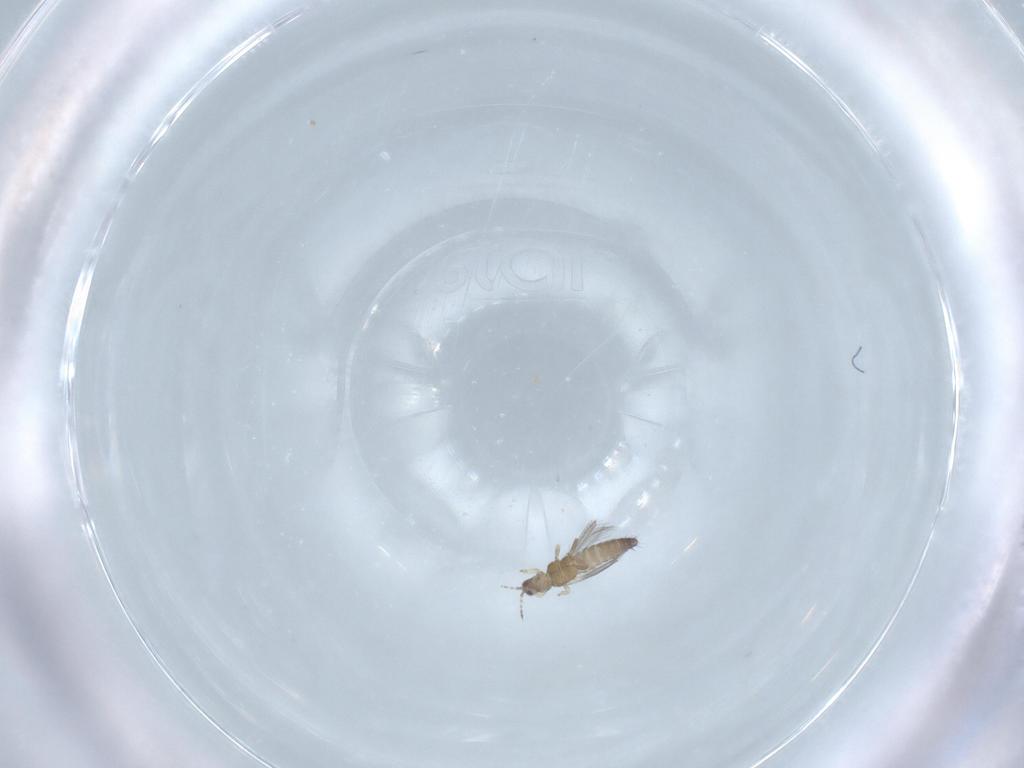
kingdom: Animalia
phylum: Arthropoda
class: Insecta
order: Thysanoptera
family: Thripidae
